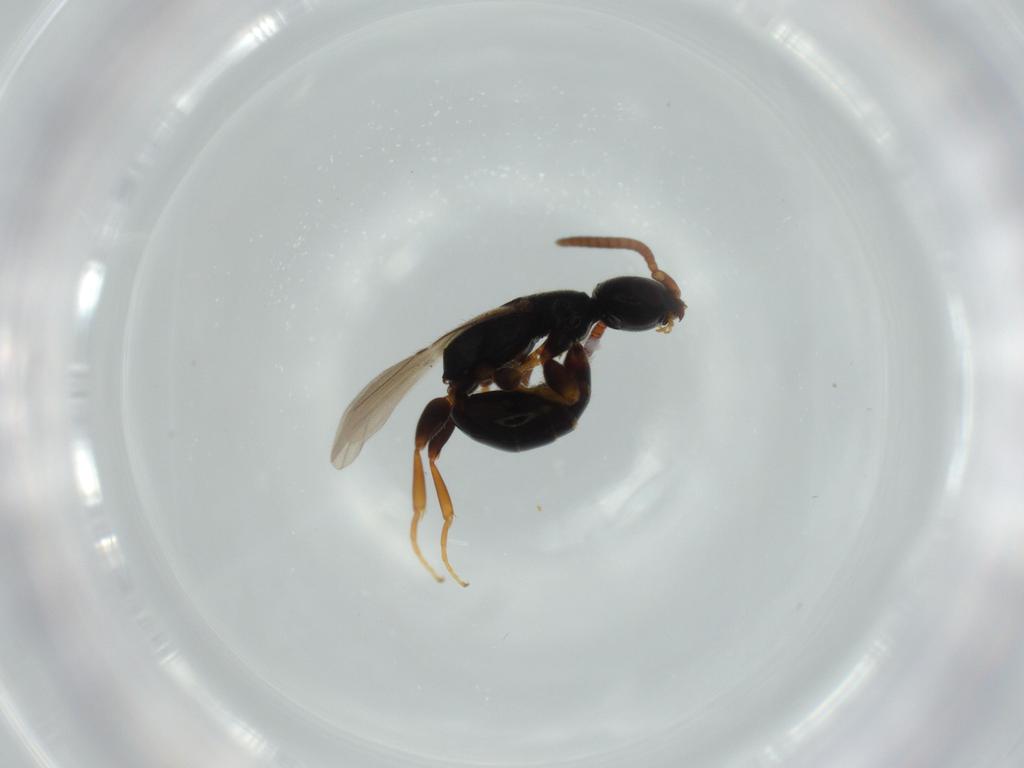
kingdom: Animalia
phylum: Arthropoda
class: Insecta
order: Hymenoptera
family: Bethylidae
